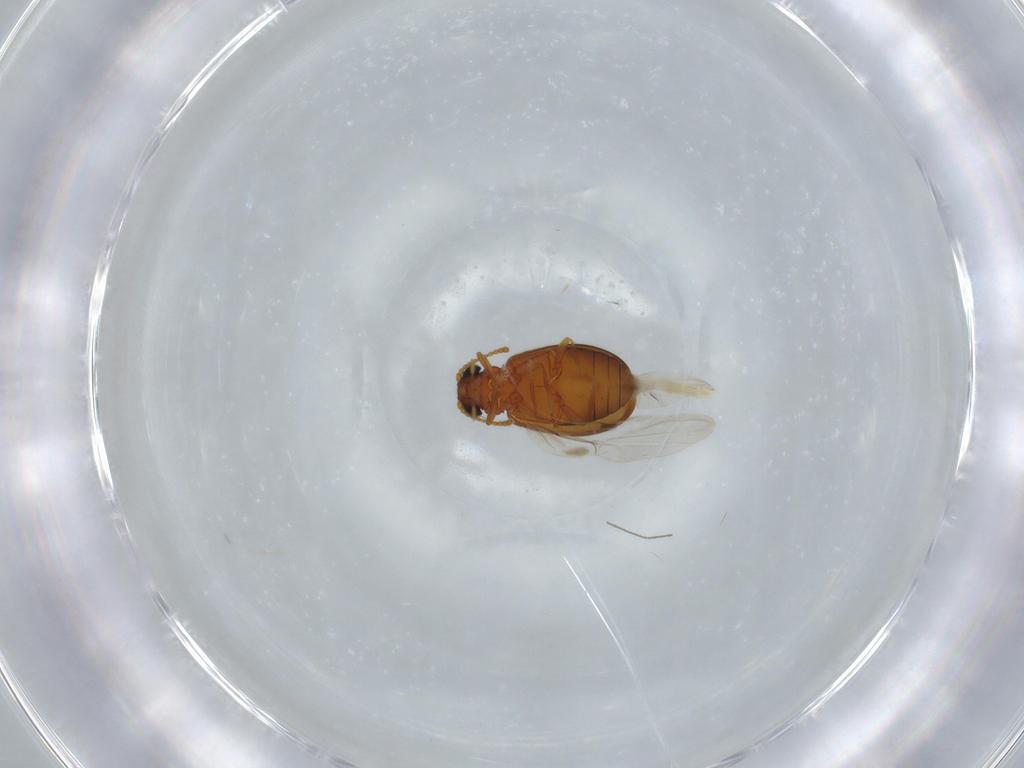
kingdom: Animalia
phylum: Arthropoda
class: Insecta
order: Coleoptera
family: Aderidae
